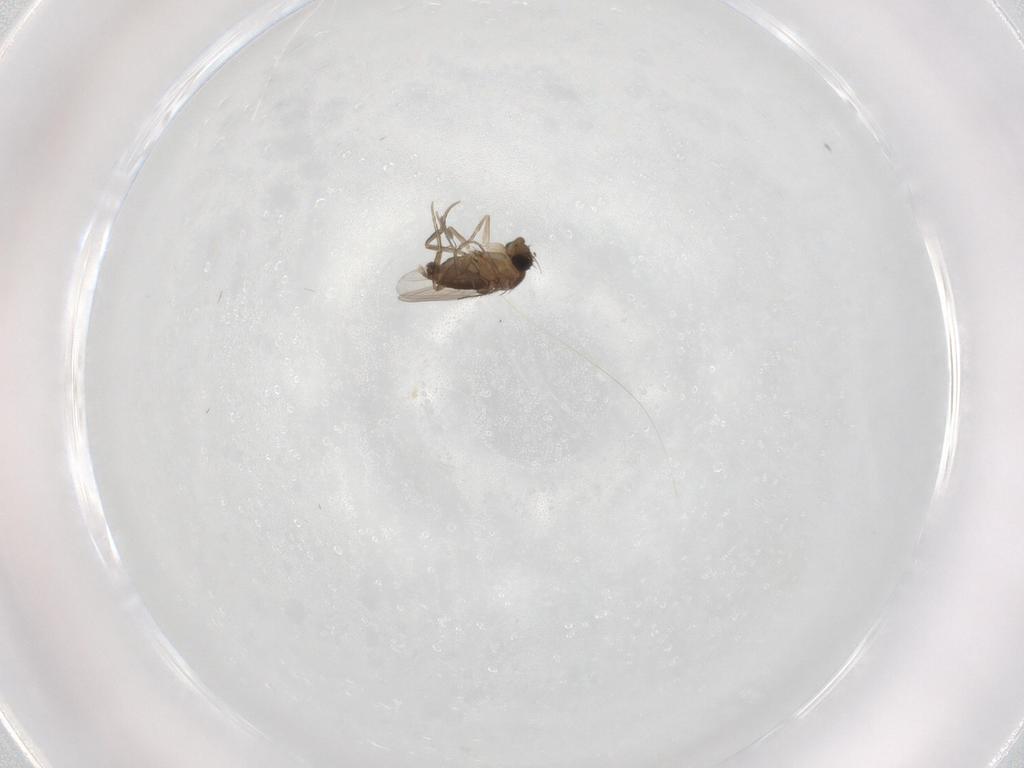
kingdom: Animalia
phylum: Arthropoda
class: Insecta
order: Diptera
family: Phoridae
